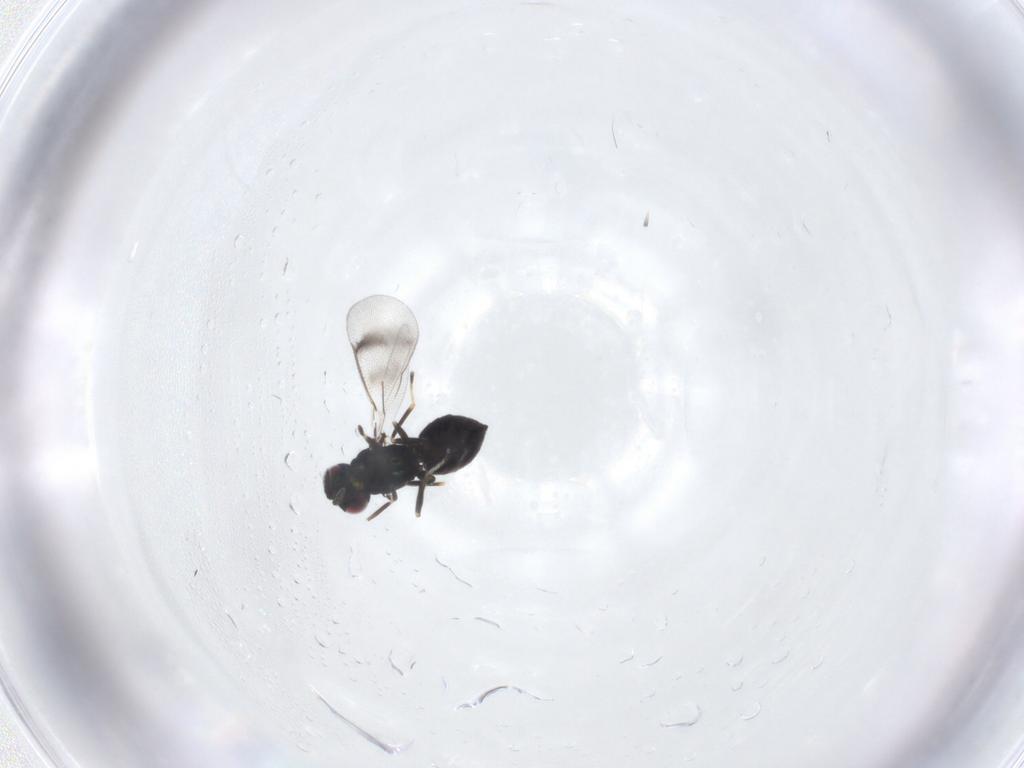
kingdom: Animalia
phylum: Arthropoda
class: Insecta
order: Hymenoptera
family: Eulophidae
